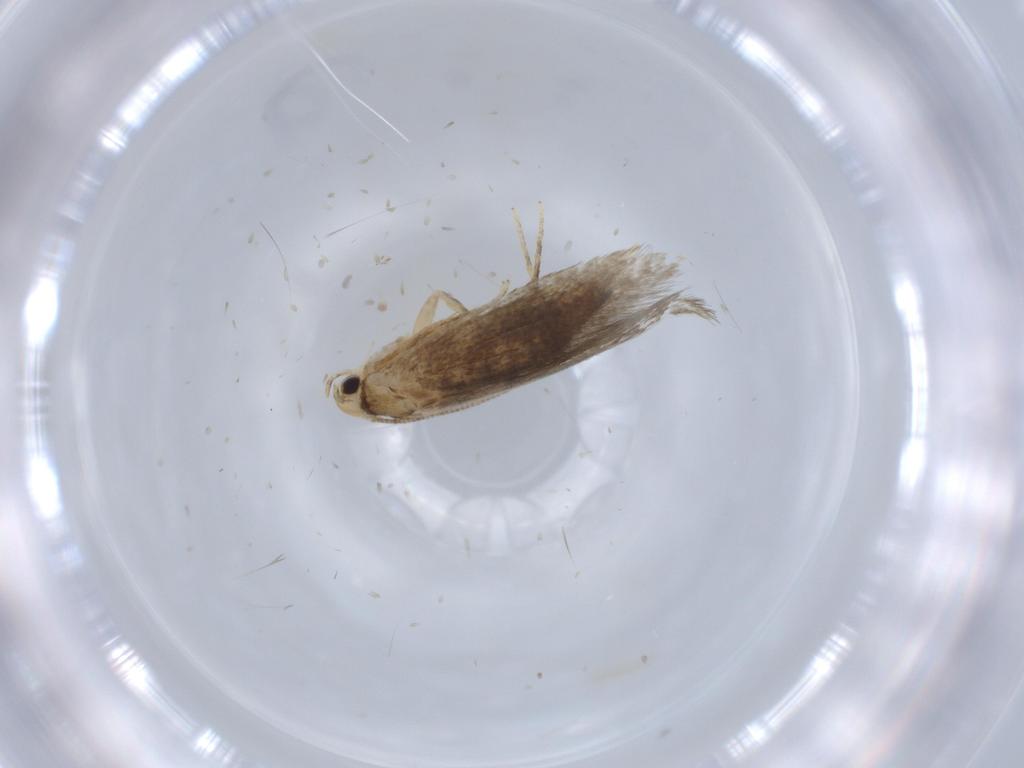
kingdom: Animalia
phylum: Arthropoda
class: Insecta
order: Lepidoptera
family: Tineidae
